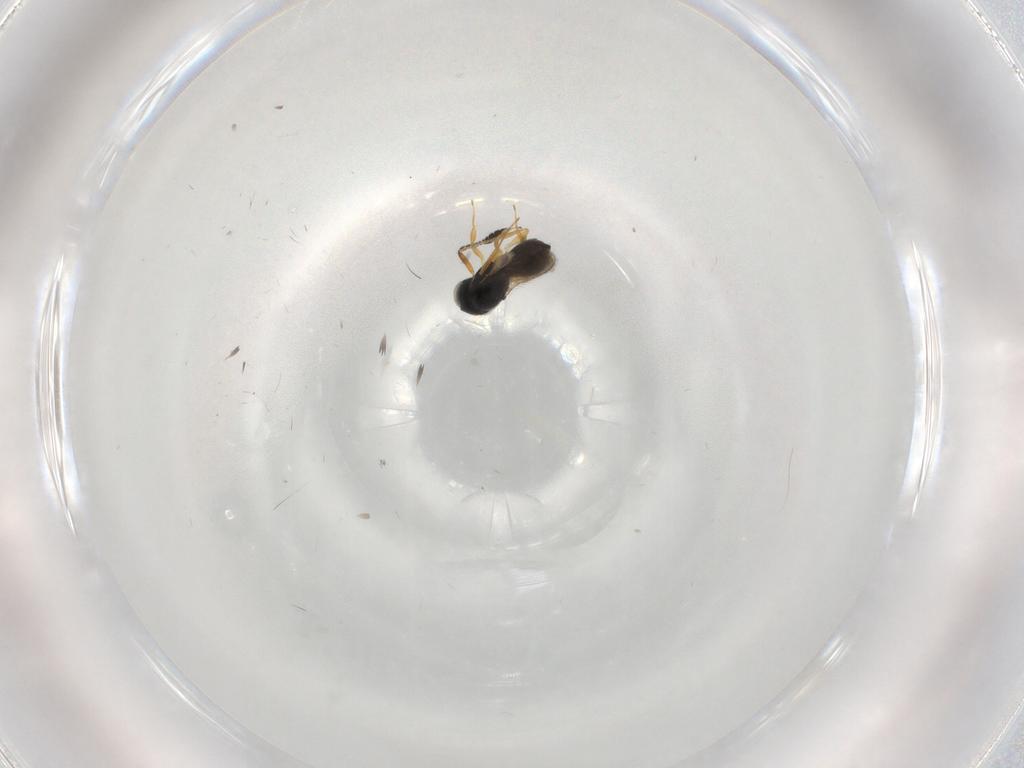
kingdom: Animalia
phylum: Arthropoda
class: Insecta
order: Hymenoptera
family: Scelionidae
